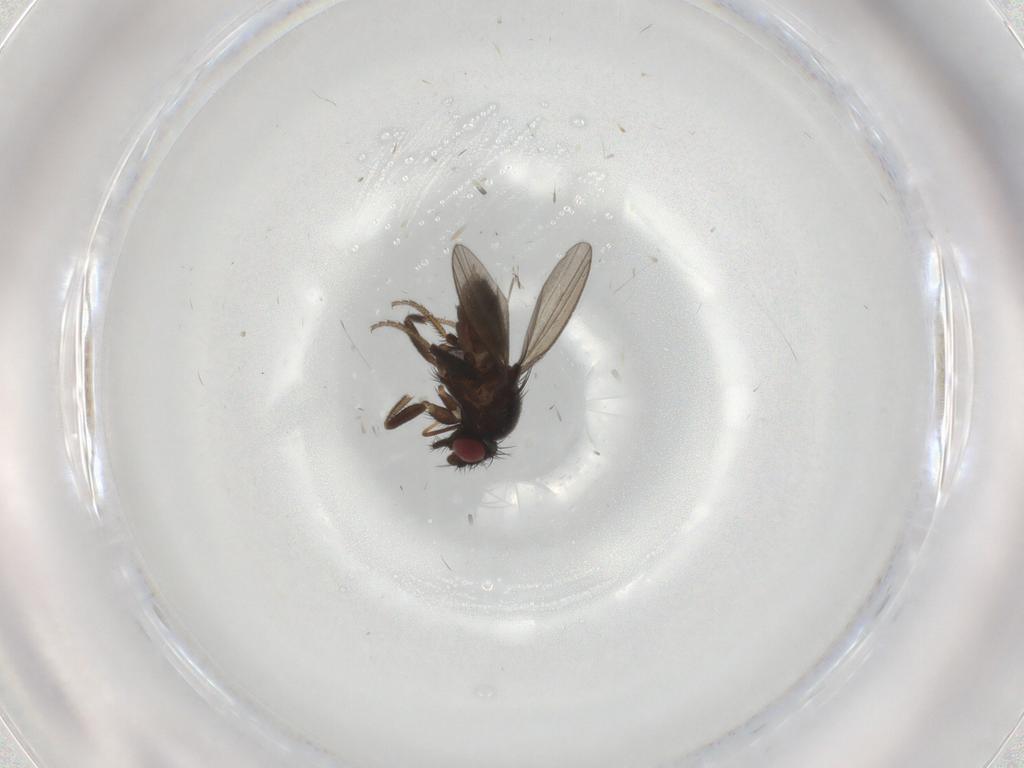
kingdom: Animalia
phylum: Arthropoda
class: Insecta
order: Diptera
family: Milichiidae
